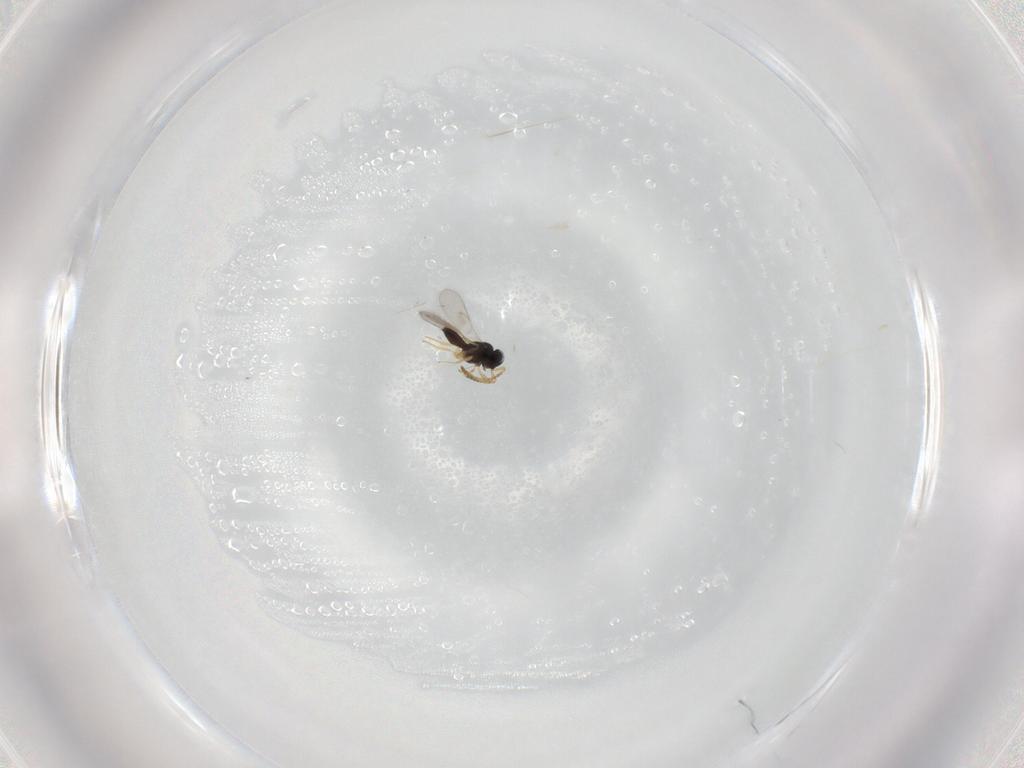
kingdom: Animalia
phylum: Arthropoda
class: Insecta
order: Hymenoptera
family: Scelionidae
